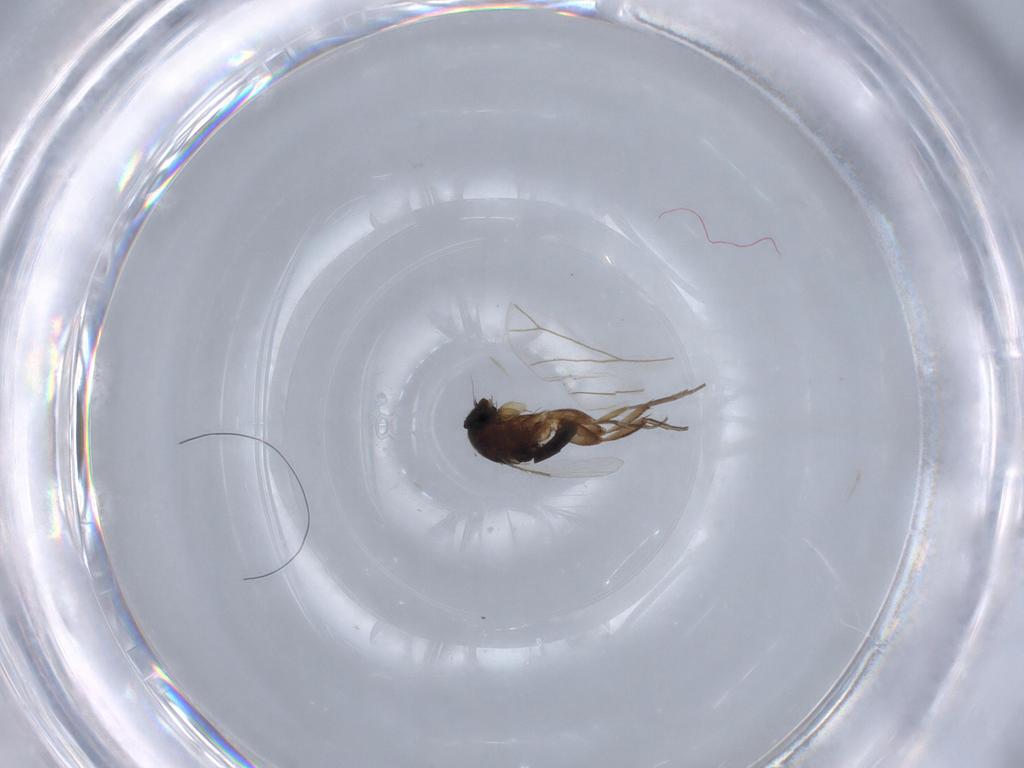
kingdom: Animalia
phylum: Arthropoda
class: Insecta
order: Diptera
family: Phoridae
